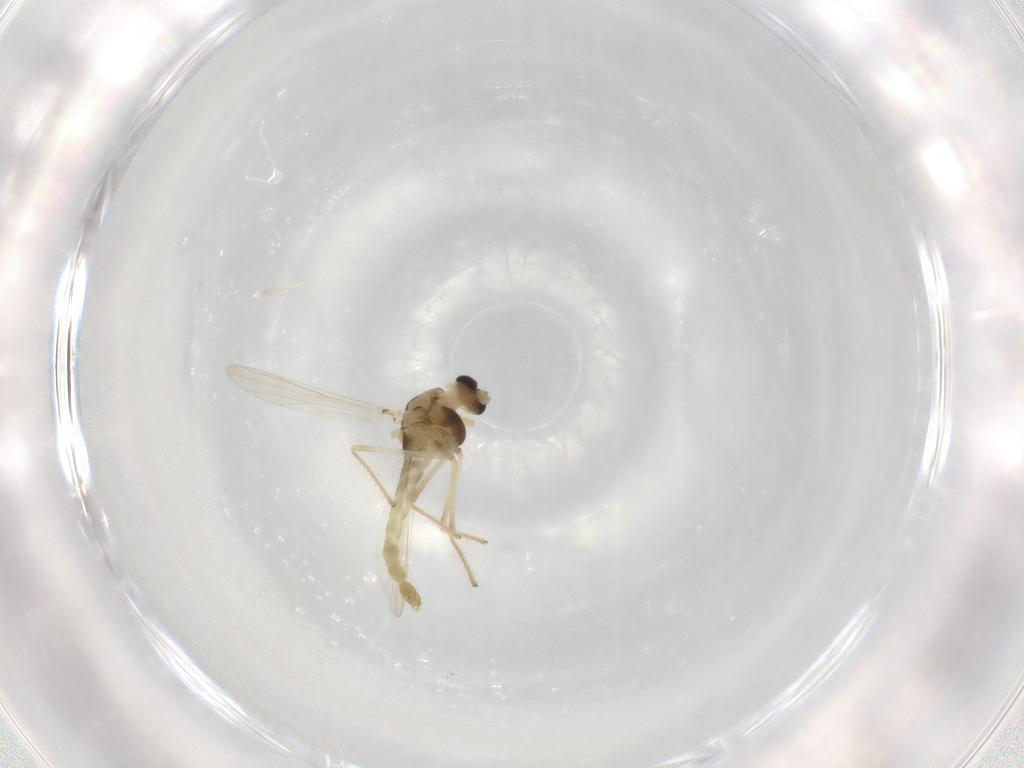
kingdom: Animalia
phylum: Arthropoda
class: Insecta
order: Diptera
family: Chironomidae
